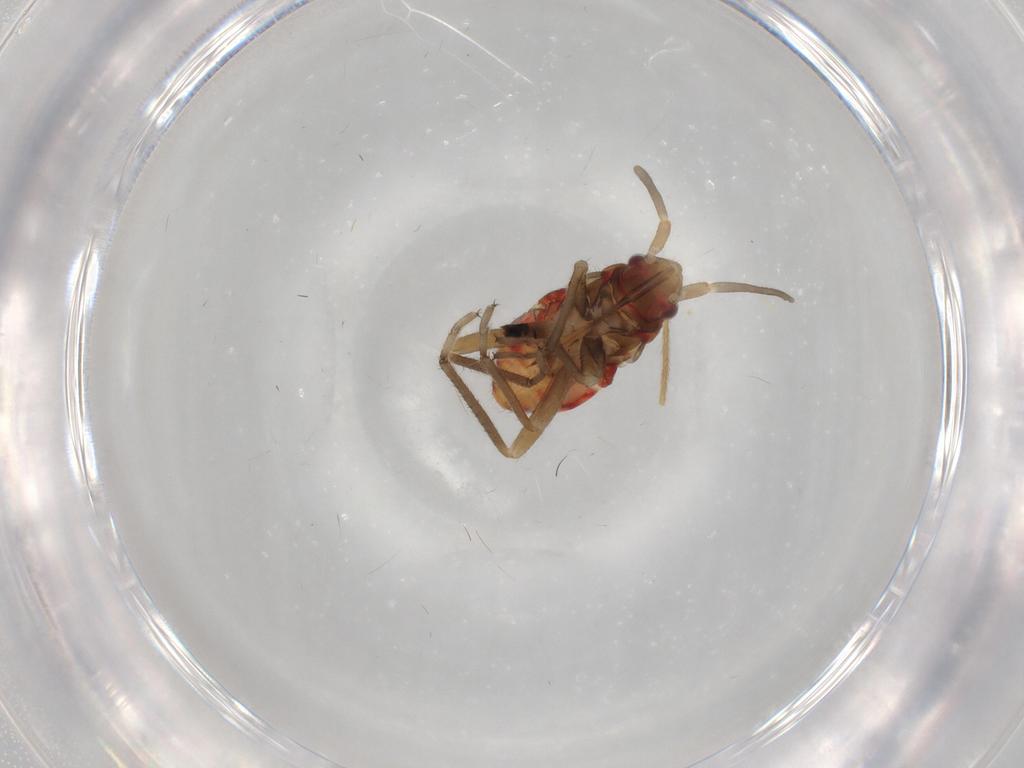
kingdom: Animalia
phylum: Arthropoda
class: Insecta
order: Hemiptera
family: Rhyparochromidae
